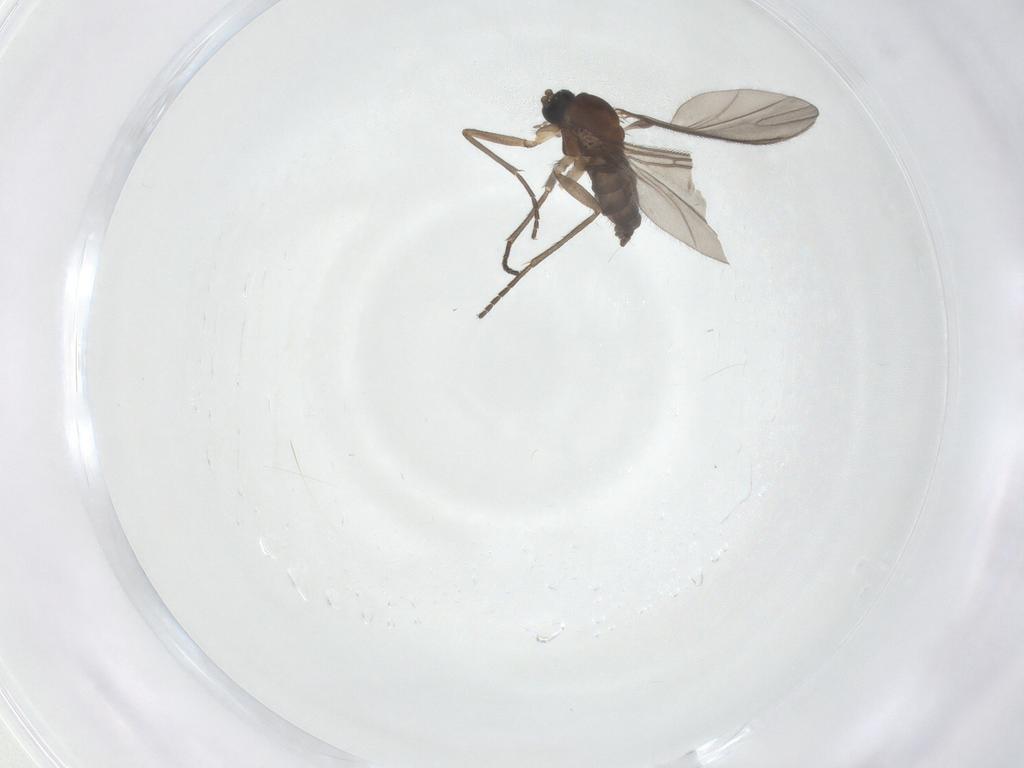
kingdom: Animalia
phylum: Arthropoda
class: Insecta
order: Diptera
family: Sciaridae
